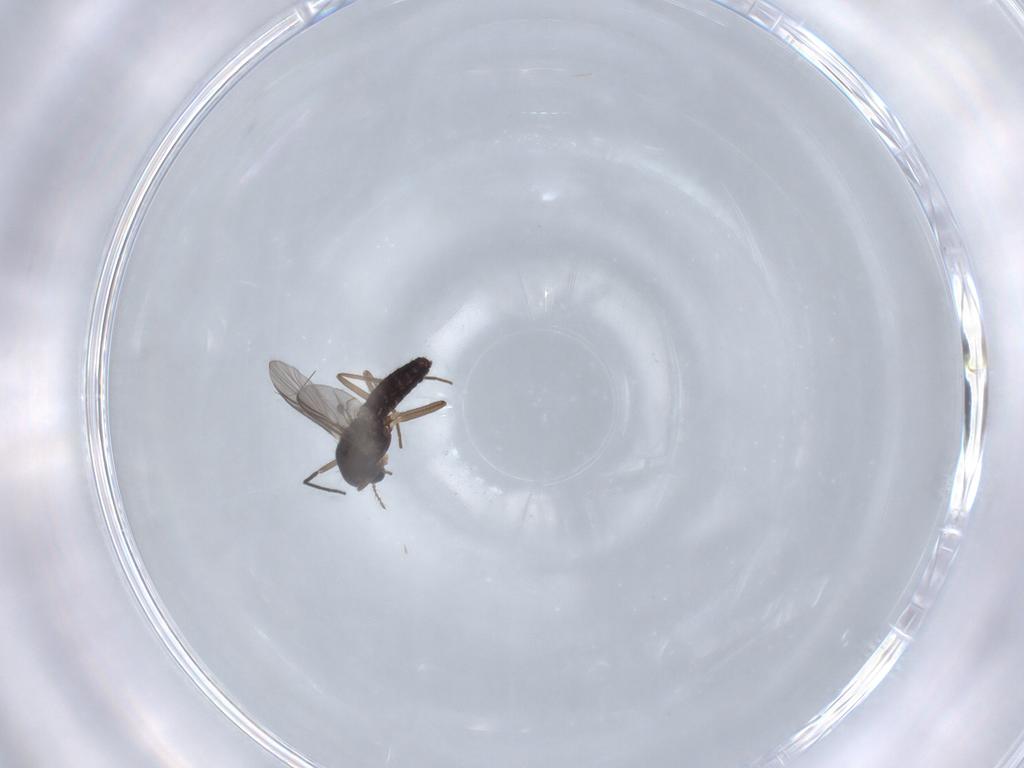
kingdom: Animalia
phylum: Arthropoda
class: Insecta
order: Diptera
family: Chironomidae
